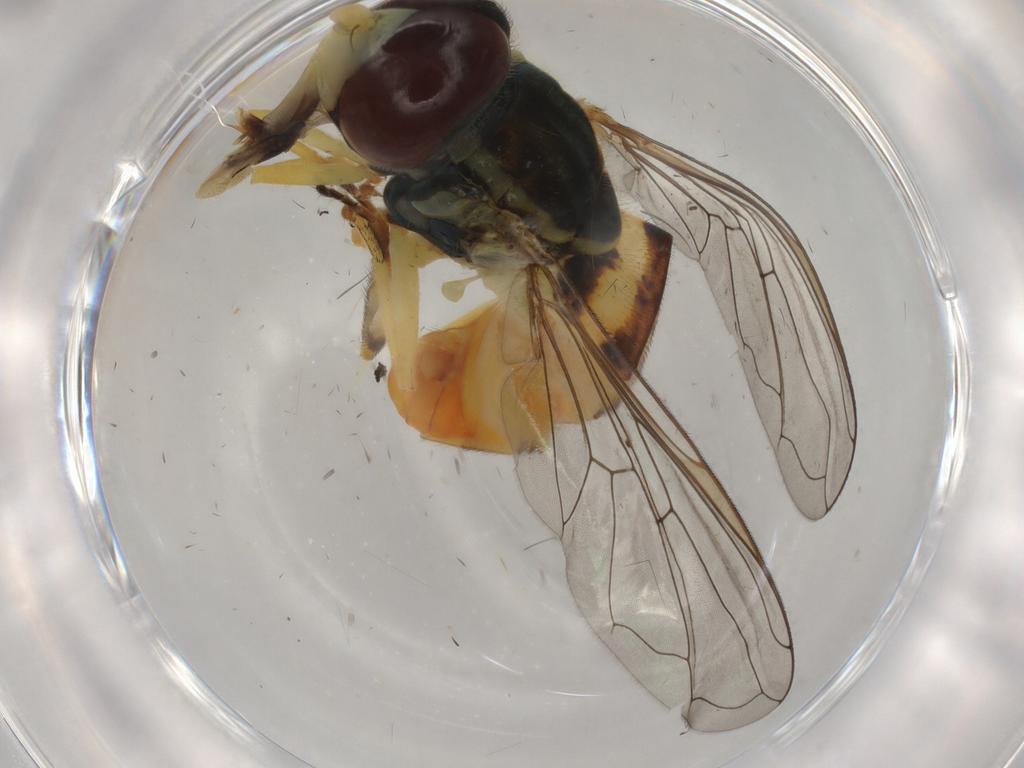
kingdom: Animalia
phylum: Arthropoda
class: Insecta
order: Diptera
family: Syrphidae
